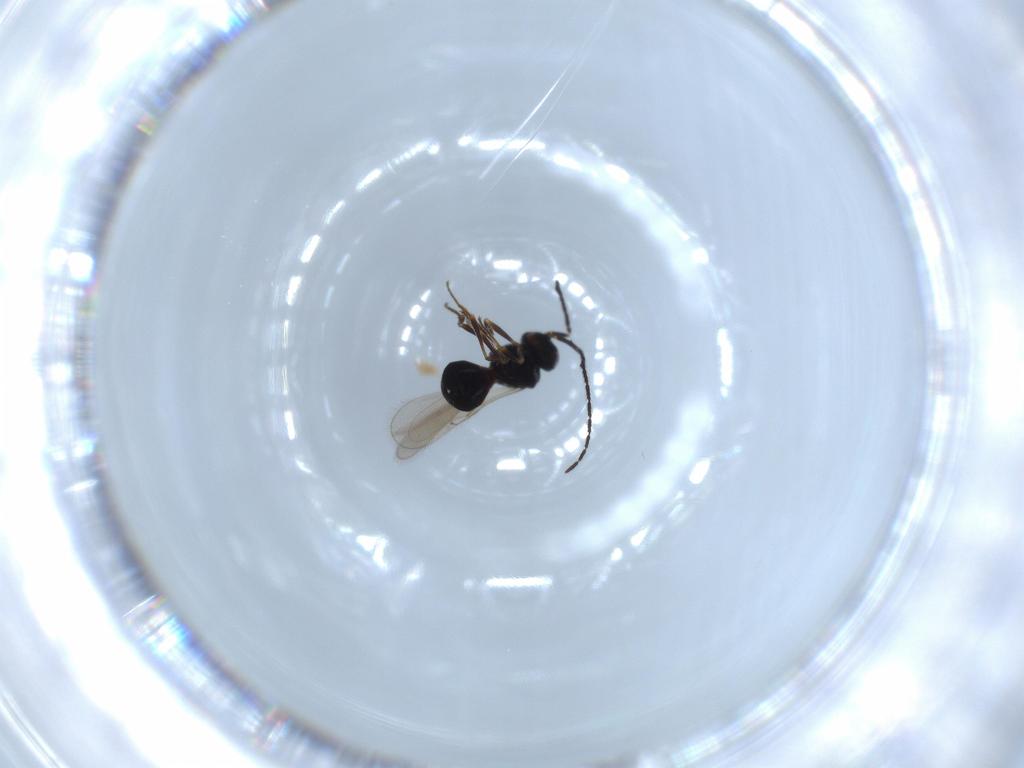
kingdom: Animalia
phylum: Arthropoda
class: Insecta
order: Hymenoptera
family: Scelionidae
